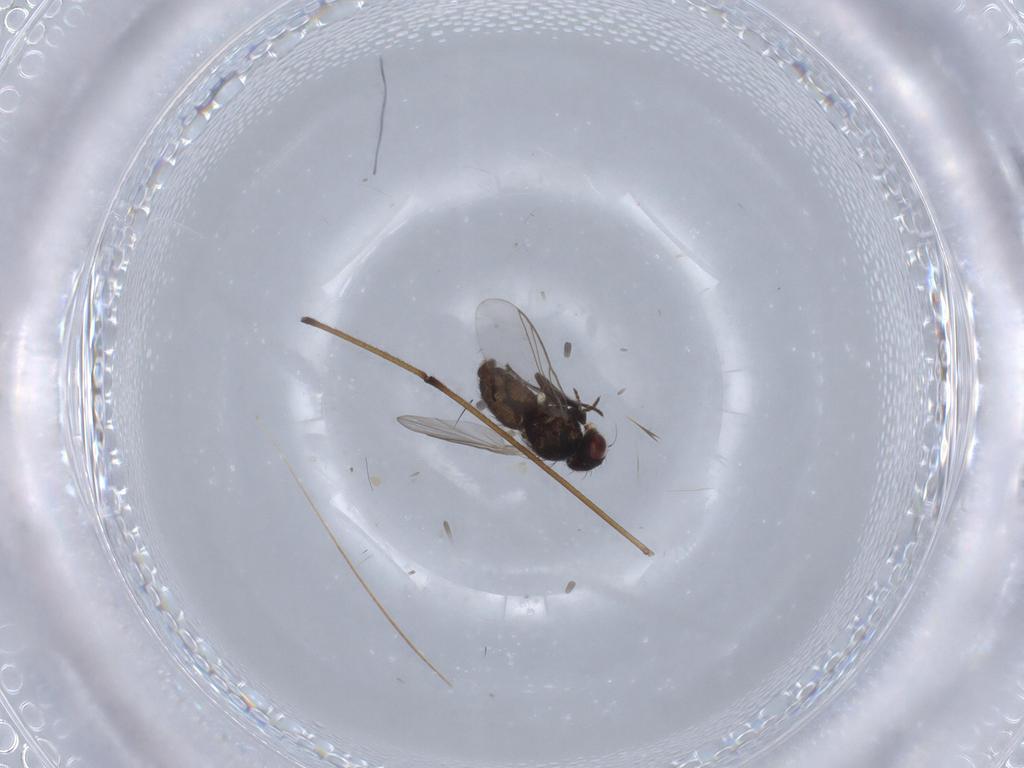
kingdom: Animalia
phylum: Arthropoda
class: Insecta
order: Diptera
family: Chironomidae
